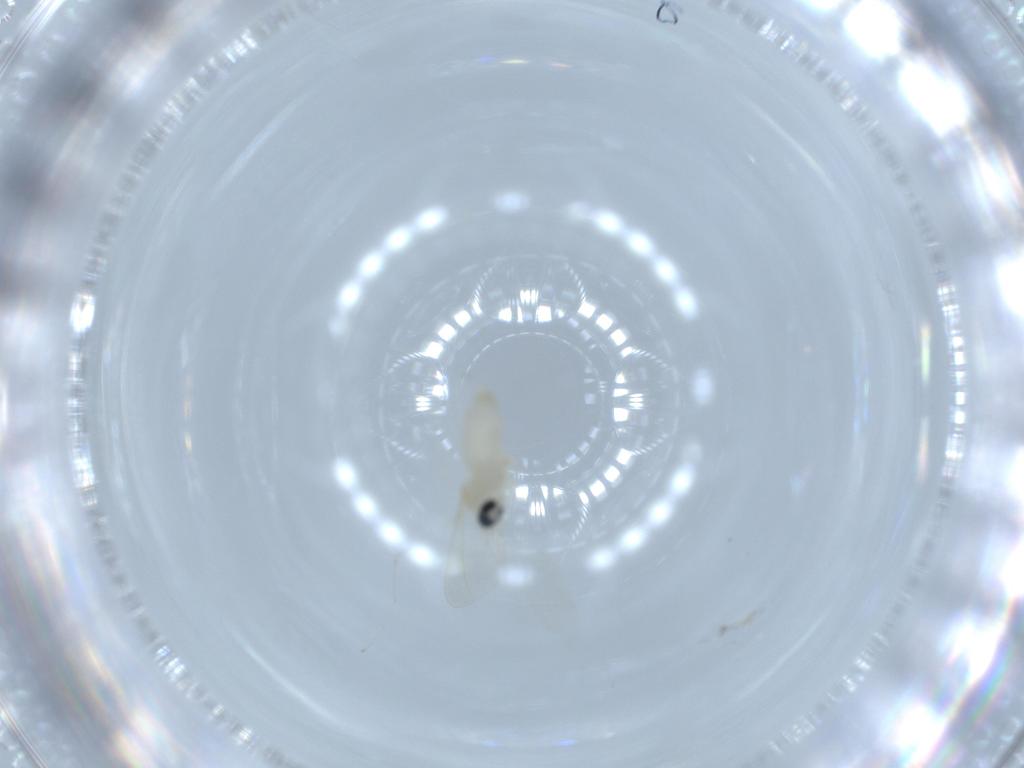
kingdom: Animalia
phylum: Arthropoda
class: Insecta
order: Diptera
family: Cecidomyiidae
